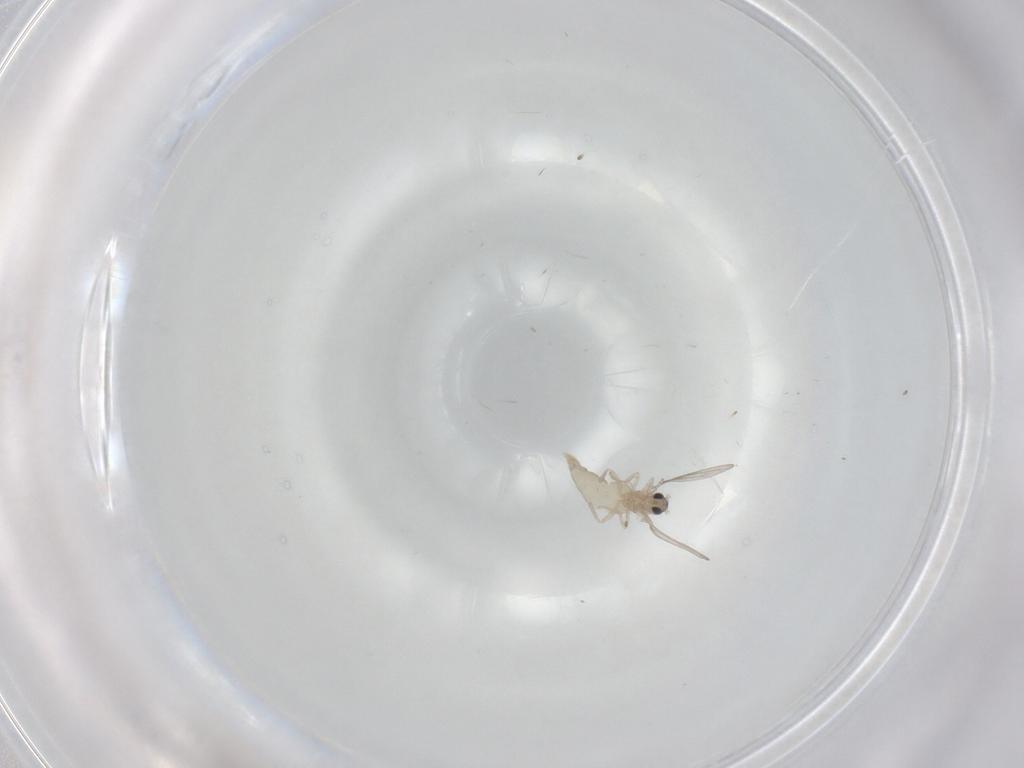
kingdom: Animalia
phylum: Arthropoda
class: Insecta
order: Diptera
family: Cecidomyiidae
